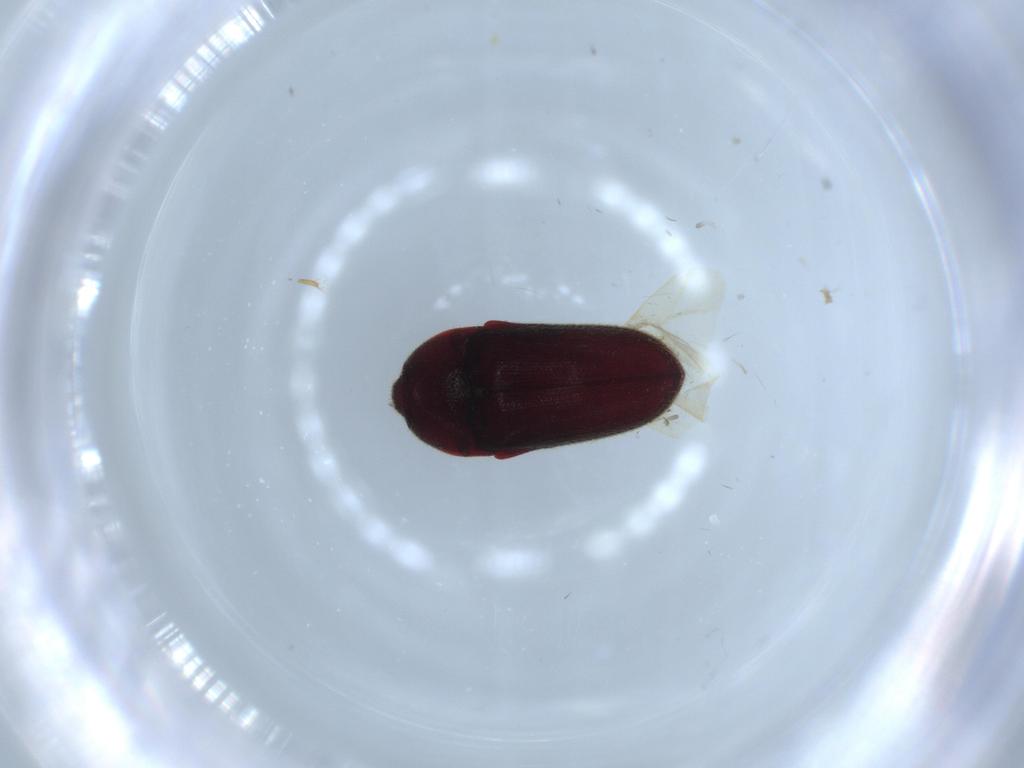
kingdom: Animalia
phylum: Arthropoda
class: Insecta
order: Coleoptera
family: Throscidae
